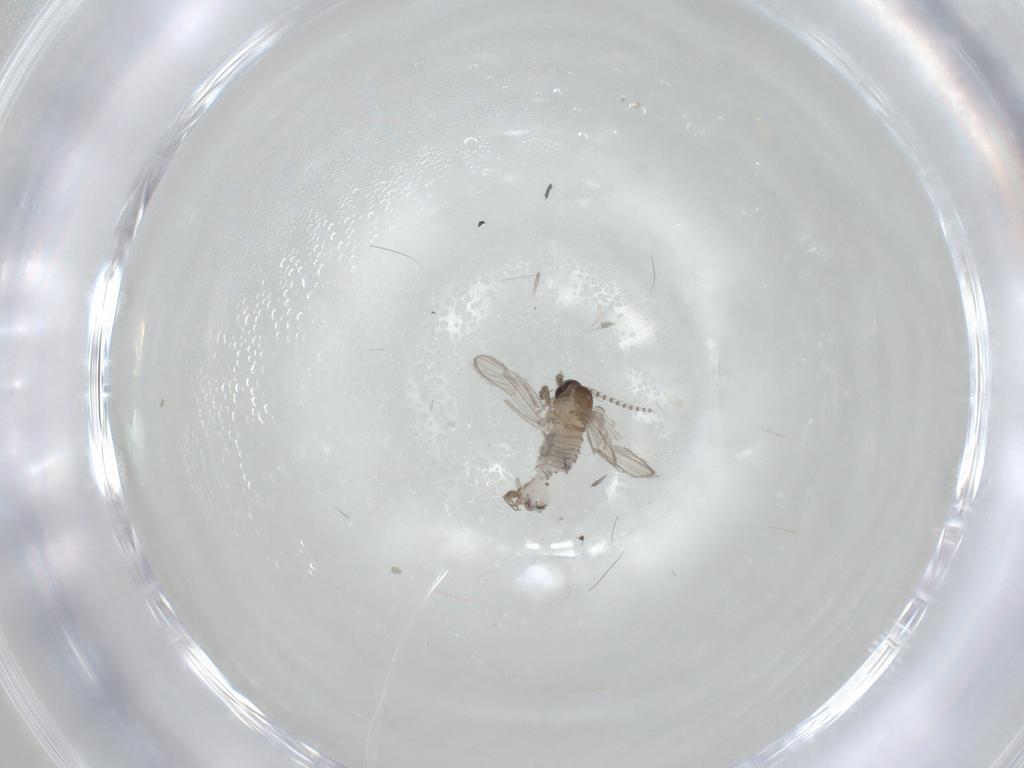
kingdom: Animalia
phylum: Arthropoda
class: Insecta
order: Diptera
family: Psychodidae
